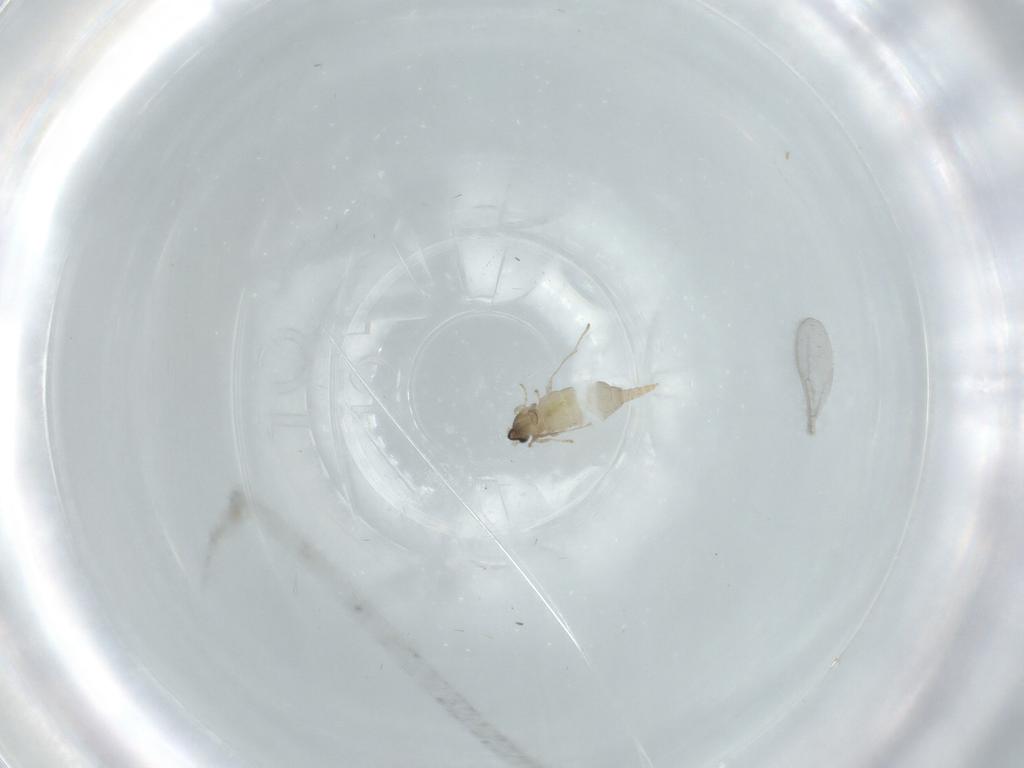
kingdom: Animalia
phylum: Arthropoda
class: Insecta
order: Diptera
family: Cecidomyiidae
